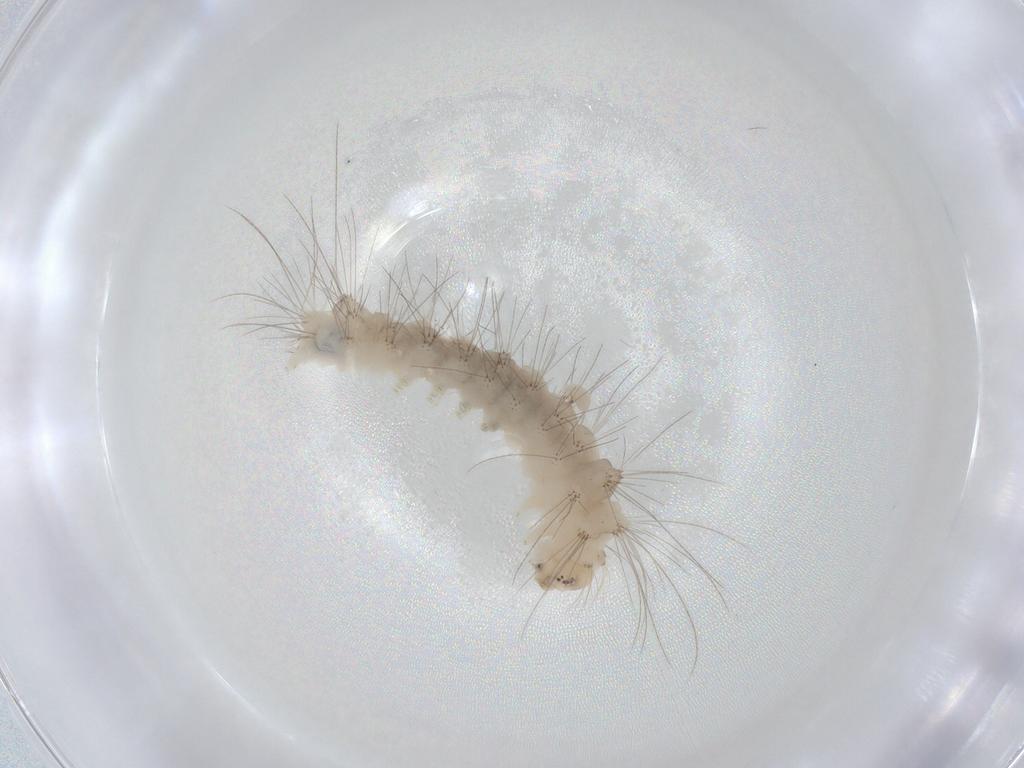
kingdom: Animalia
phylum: Arthropoda
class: Insecta
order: Lepidoptera
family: Erebidae
